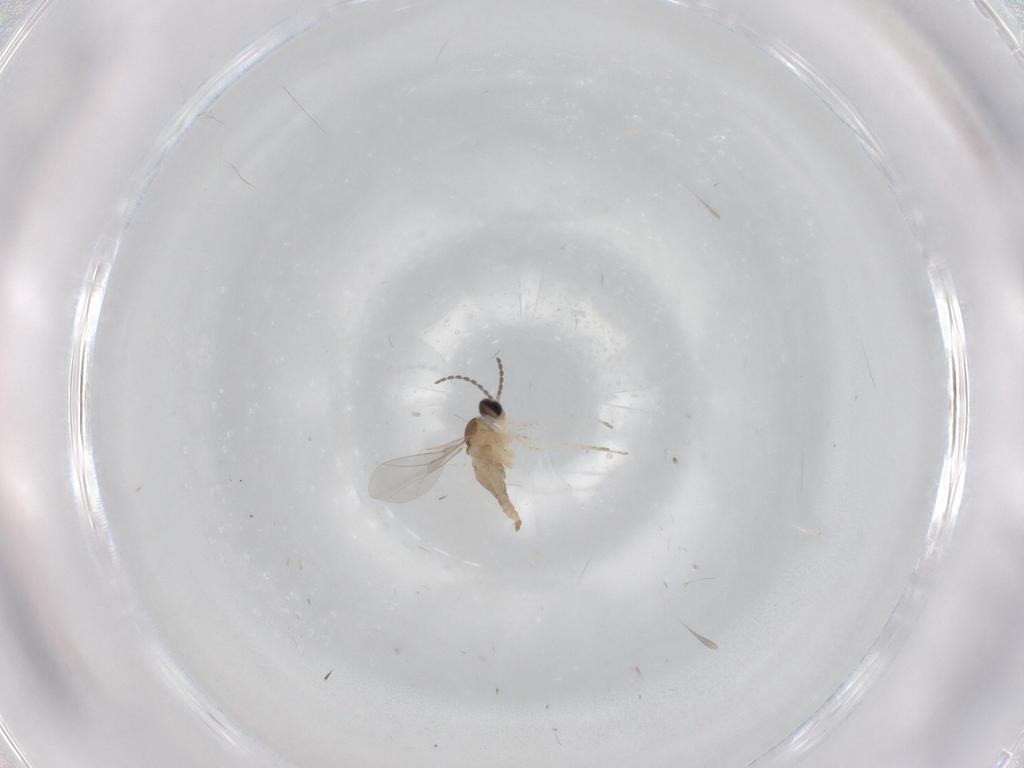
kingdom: Animalia
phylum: Arthropoda
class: Insecta
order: Diptera
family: Cecidomyiidae
